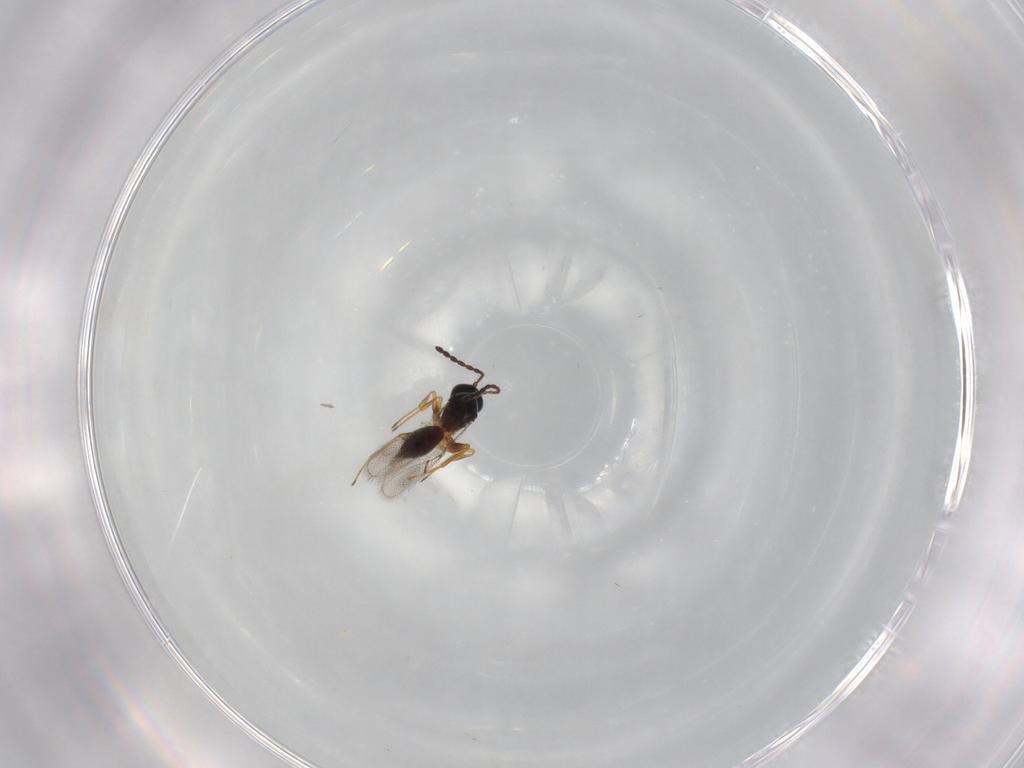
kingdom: Animalia
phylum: Arthropoda
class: Insecta
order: Hymenoptera
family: Figitidae
